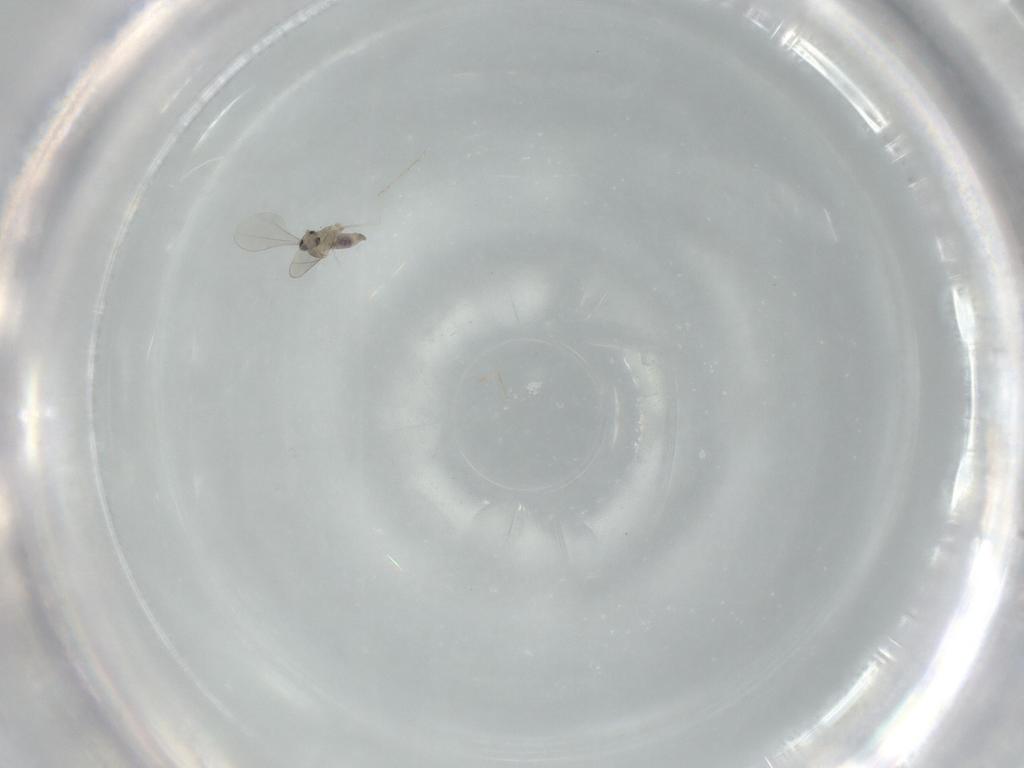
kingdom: Animalia
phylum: Arthropoda
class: Insecta
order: Diptera
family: Cecidomyiidae
